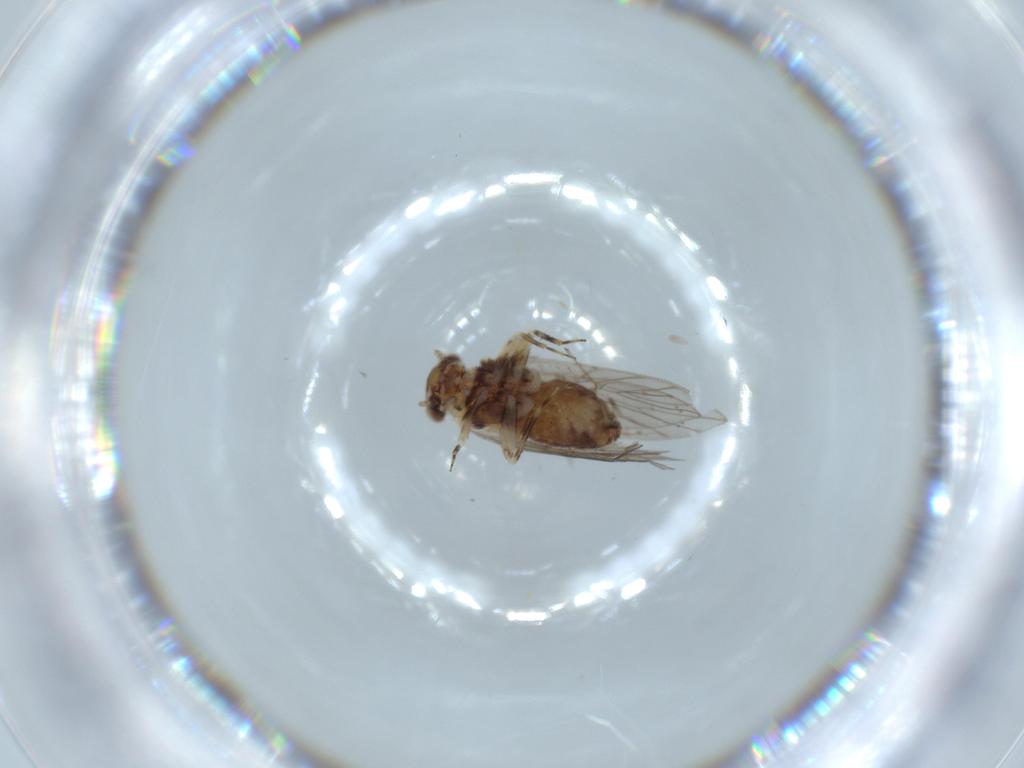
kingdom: Animalia
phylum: Arthropoda
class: Insecta
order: Psocodea
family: Lepidopsocidae
